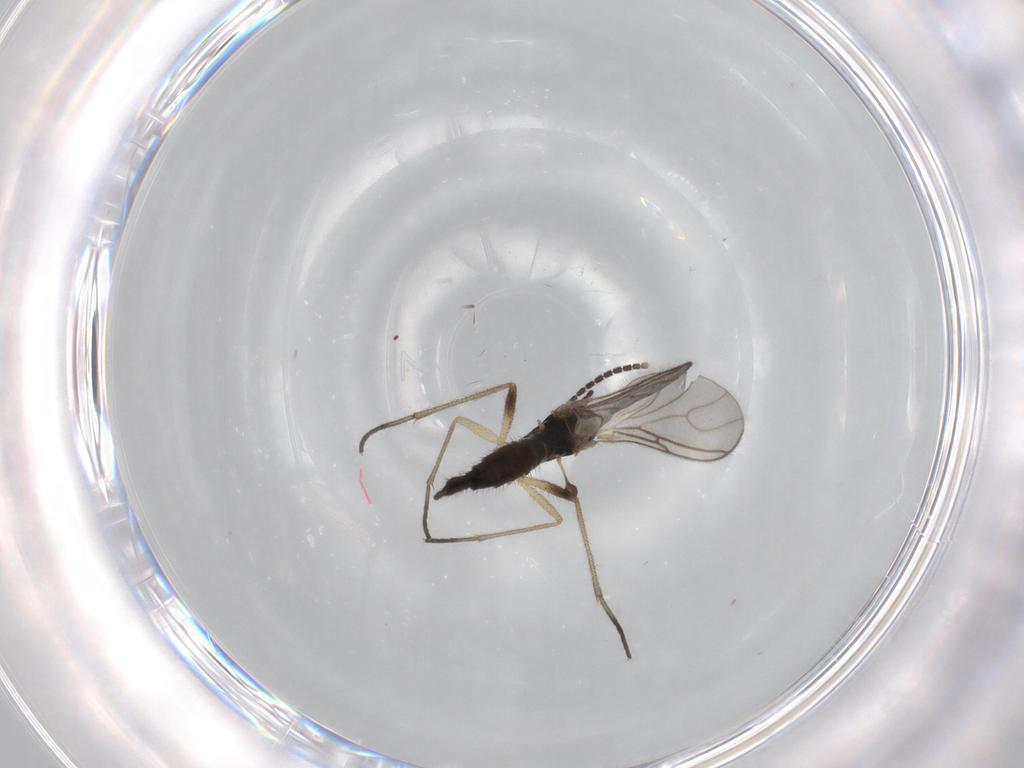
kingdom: Animalia
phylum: Arthropoda
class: Insecta
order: Diptera
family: Sciaridae
